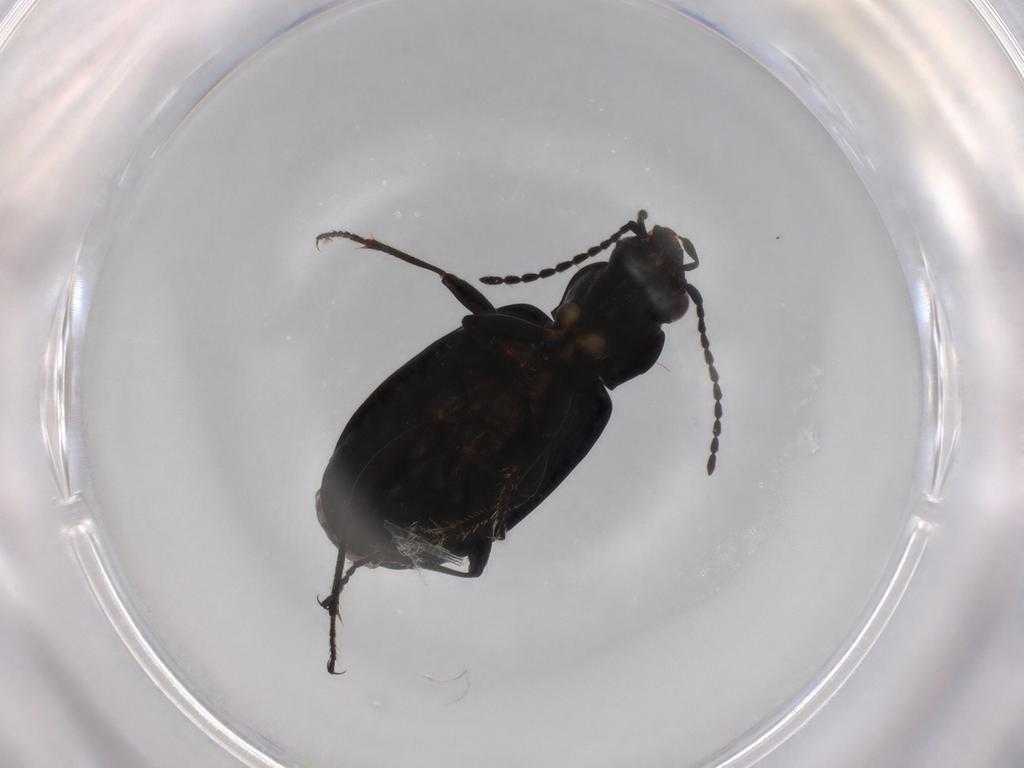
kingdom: Animalia
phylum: Arthropoda
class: Insecta
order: Coleoptera
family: Carabidae
